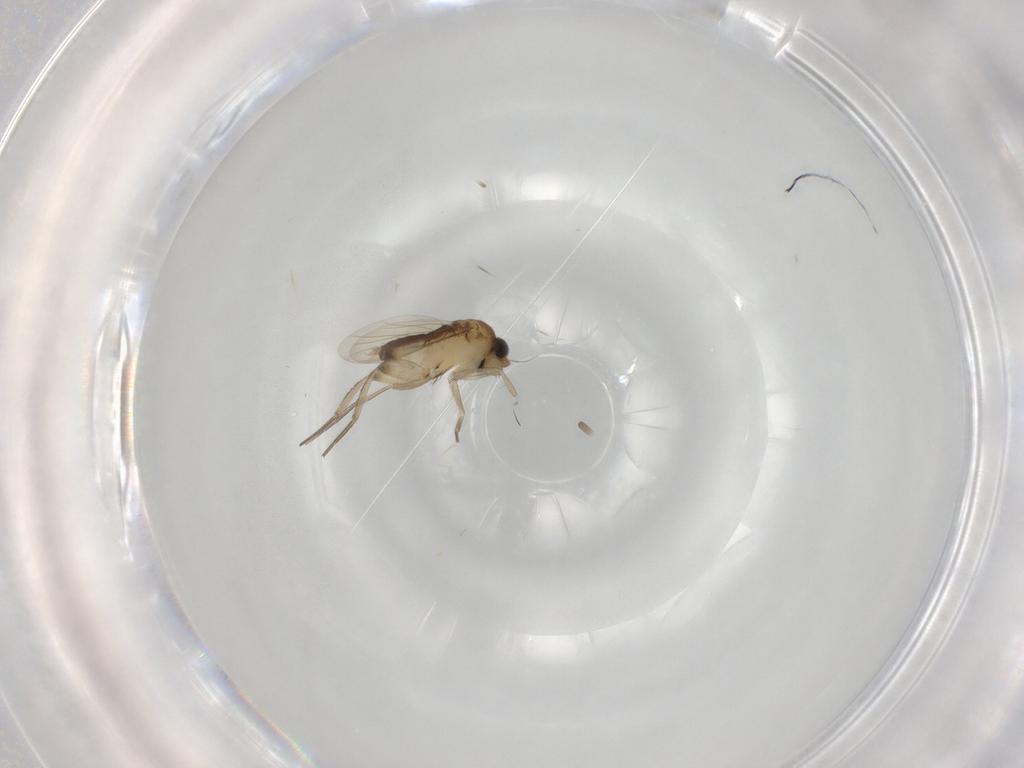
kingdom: Animalia
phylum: Arthropoda
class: Insecta
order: Diptera
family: Phoridae
